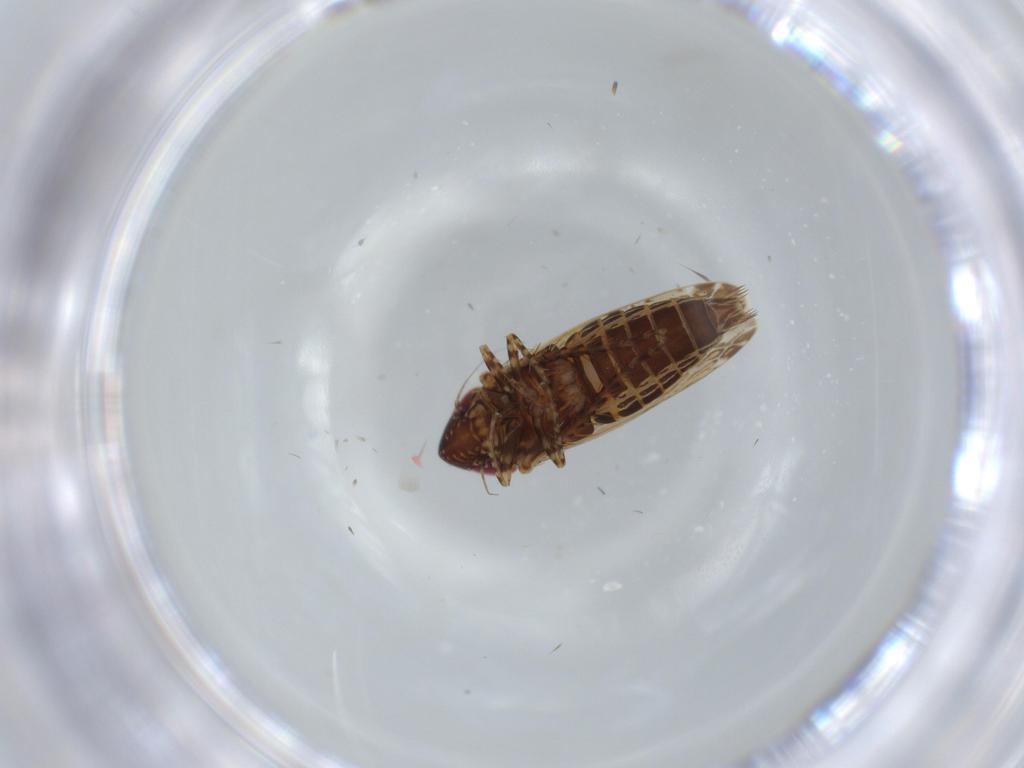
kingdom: Animalia
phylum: Arthropoda
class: Insecta
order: Hemiptera
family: Cicadellidae
